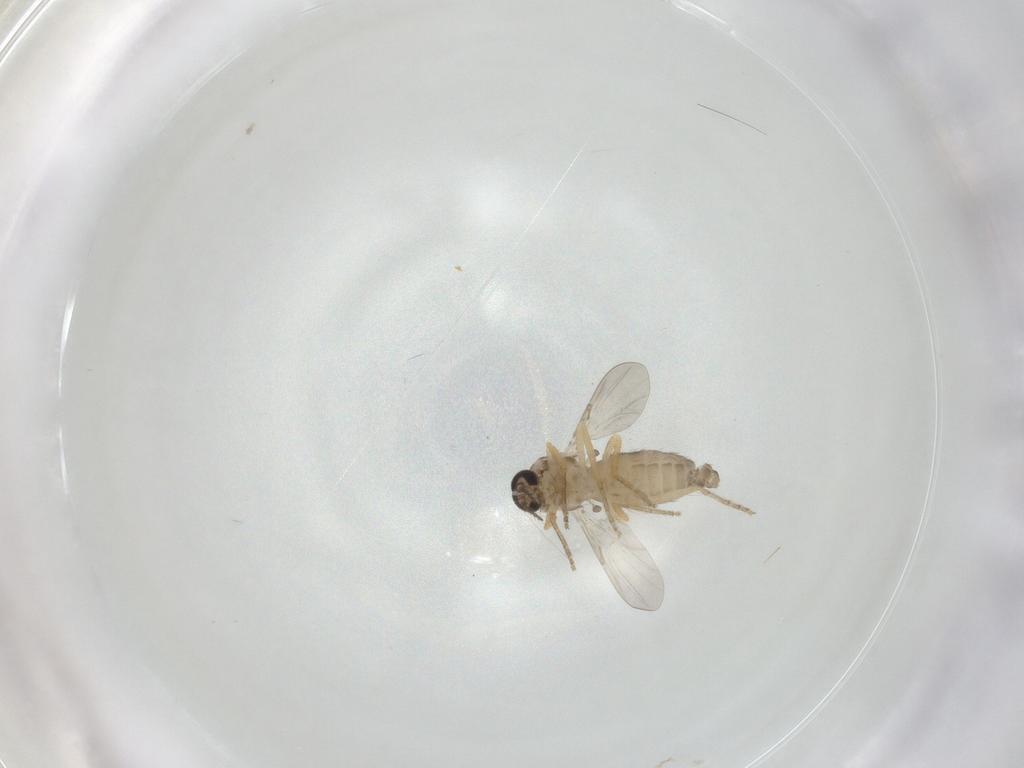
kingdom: Animalia
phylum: Arthropoda
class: Insecta
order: Diptera
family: Ceratopogonidae
